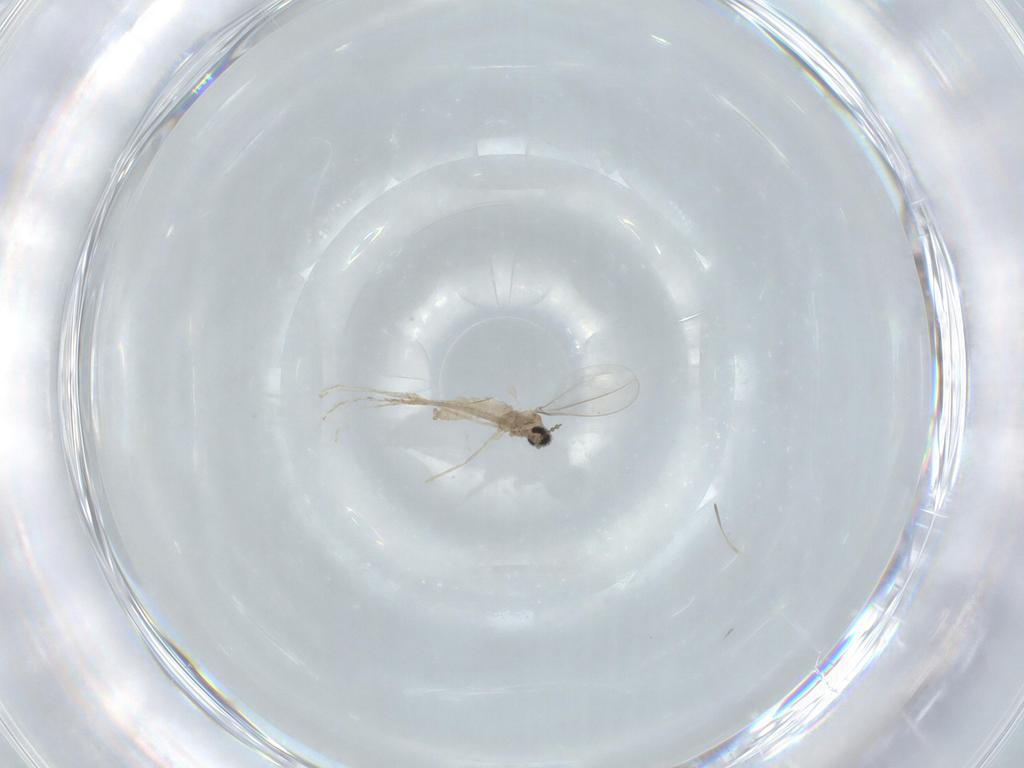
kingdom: Animalia
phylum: Arthropoda
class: Insecta
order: Diptera
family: Cecidomyiidae
